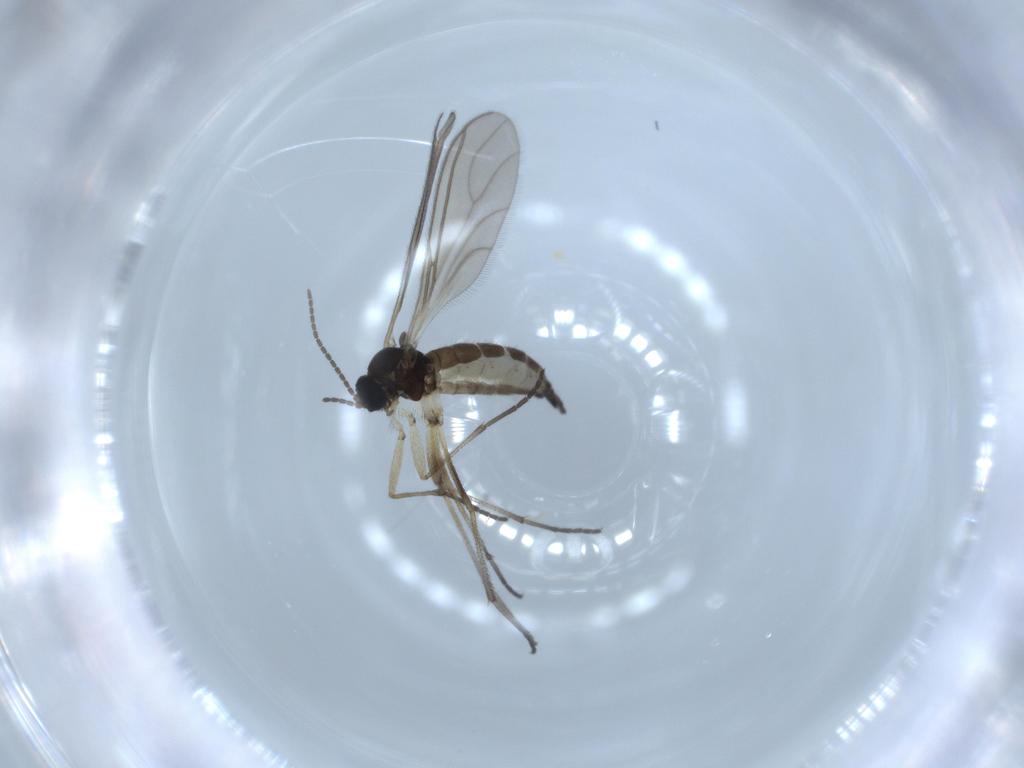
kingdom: Animalia
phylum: Arthropoda
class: Insecta
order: Diptera
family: Sciaridae
